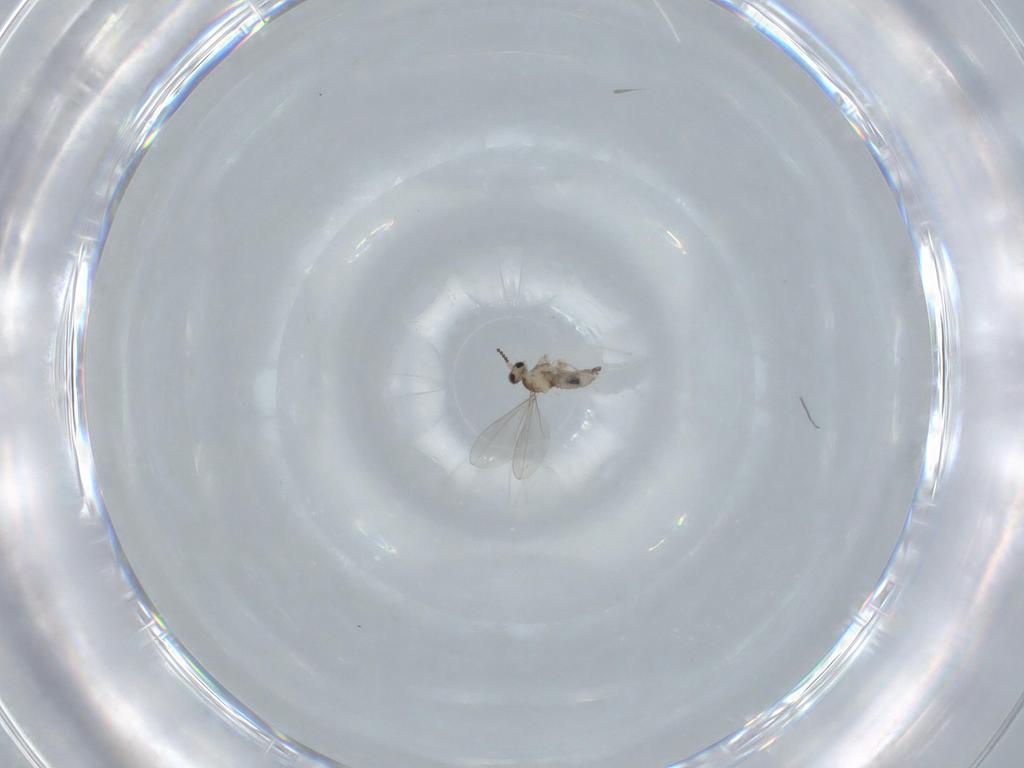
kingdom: Animalia
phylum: Arthropoda
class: Insecta
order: Diptera
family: Cecidomyiidae
